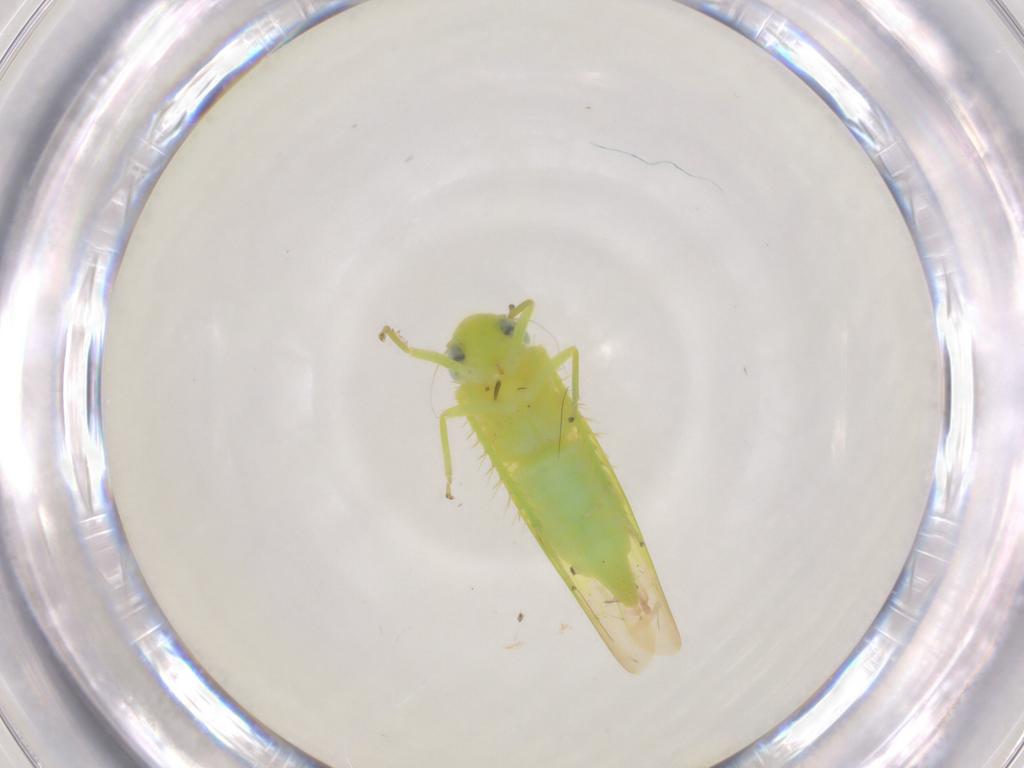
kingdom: Animalia
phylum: Arthropoda
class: Insecta
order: Hemiptera
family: Cicadellidae
